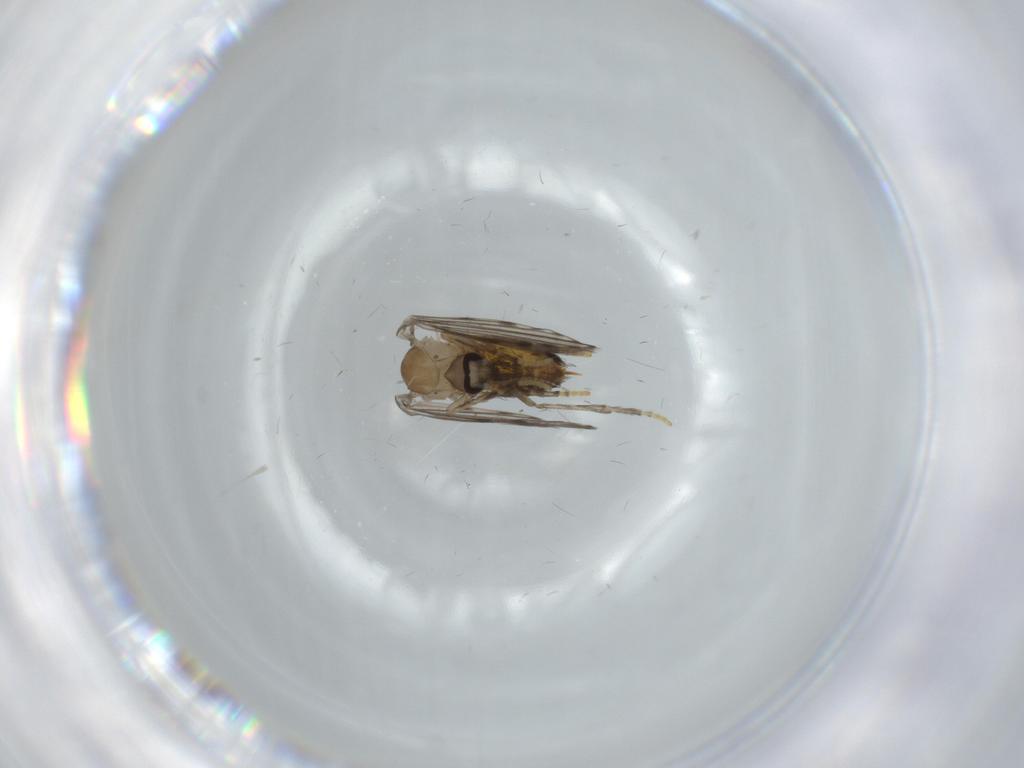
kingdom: Animalia
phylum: Arthropoda
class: Insecta
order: Diptera
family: Psychodidae
